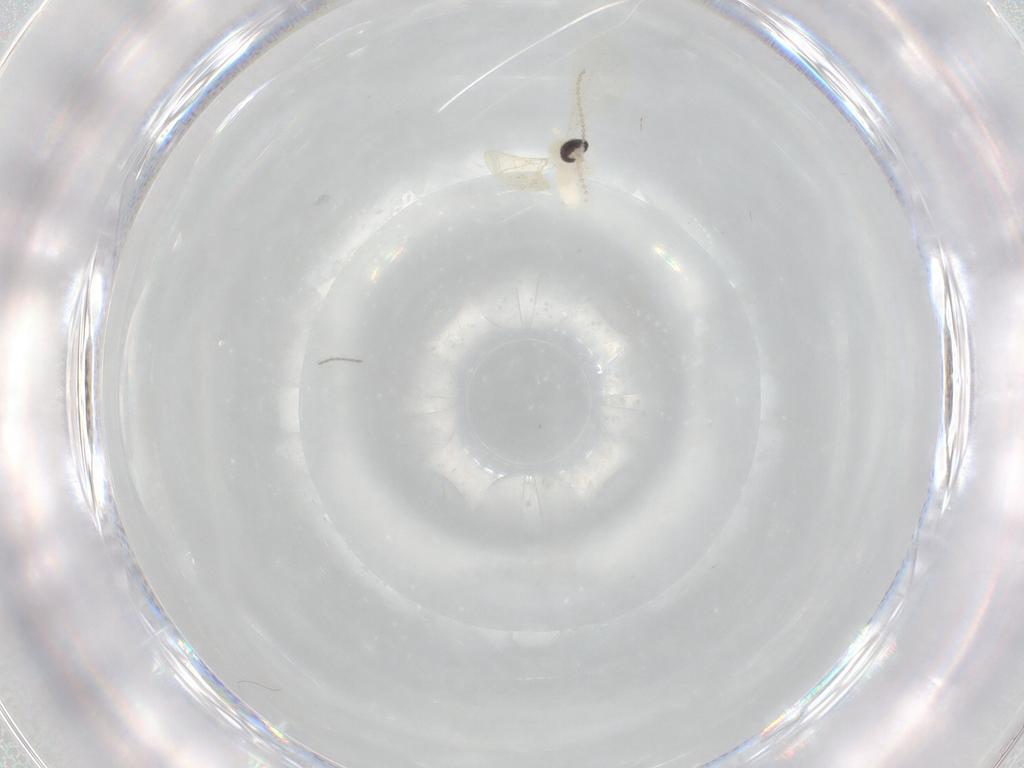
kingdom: Animalia
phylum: Arthropoda
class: Insecta
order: Diptera
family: Cecidomyiidae
